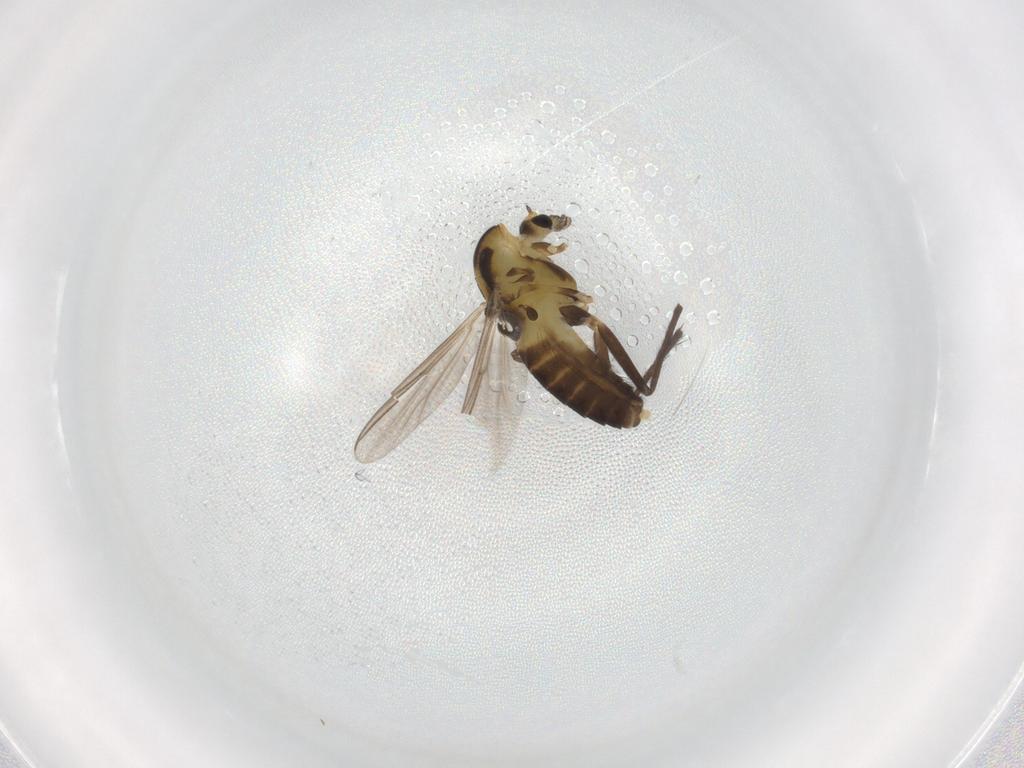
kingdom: Animalia
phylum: Arthropoda
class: Insecta
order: Diptera
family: Chironomidae
